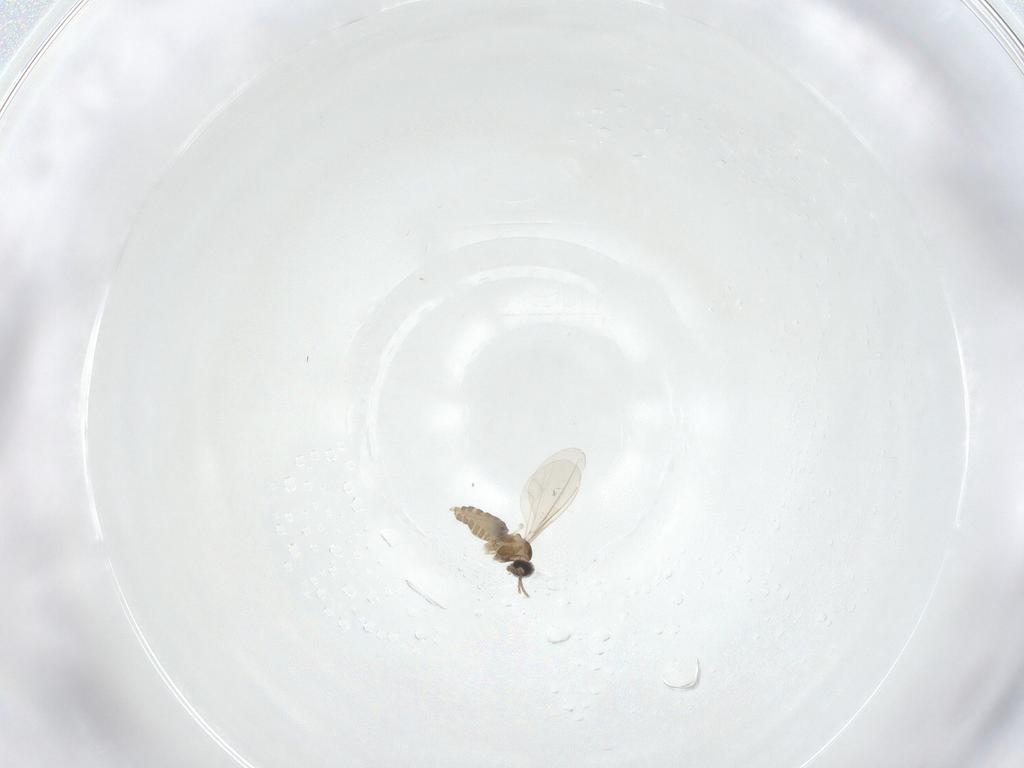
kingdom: Animalia
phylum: Arthropoda
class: Insecta
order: Diptera
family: Cecidomyiidae
